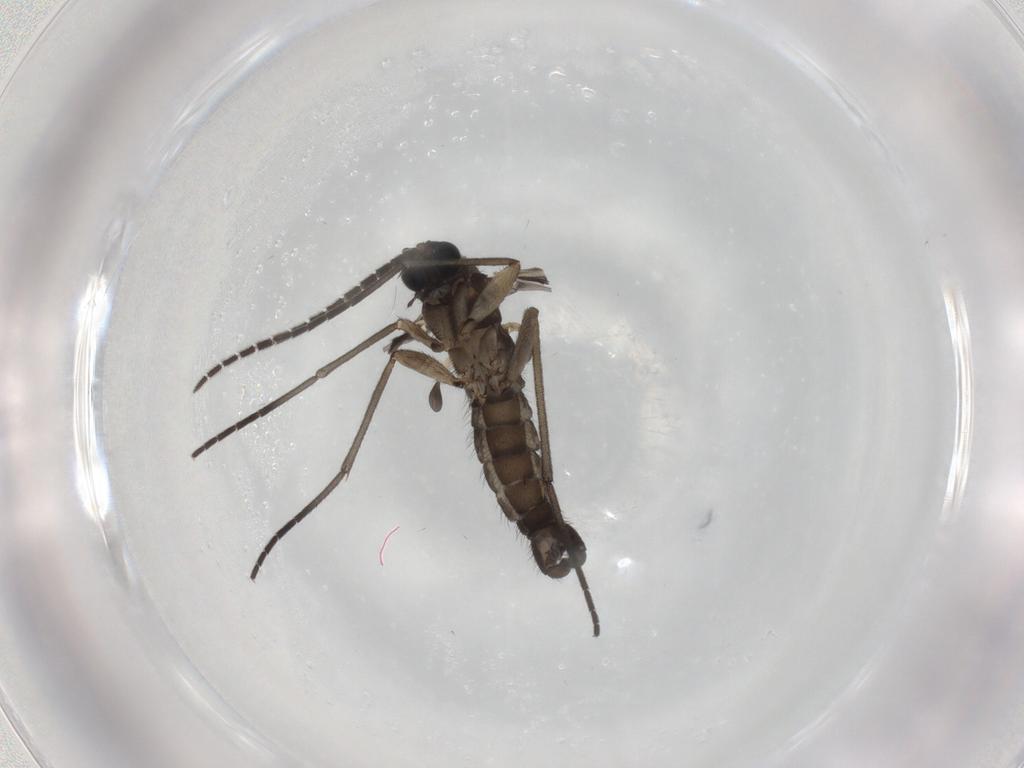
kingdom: Animalia
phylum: Arthropoda
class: Insecta
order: Diptera
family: Sciaridae
